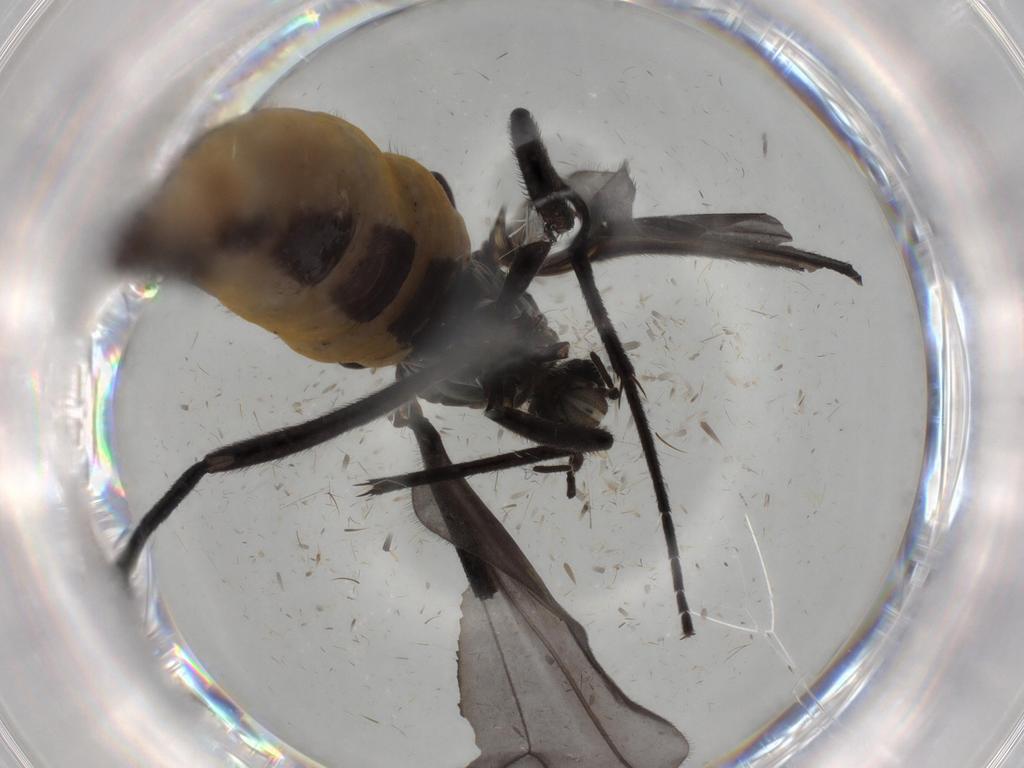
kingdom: Animalia
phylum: Arthropoda
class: Insecta
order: Diptera
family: Sciaridae
